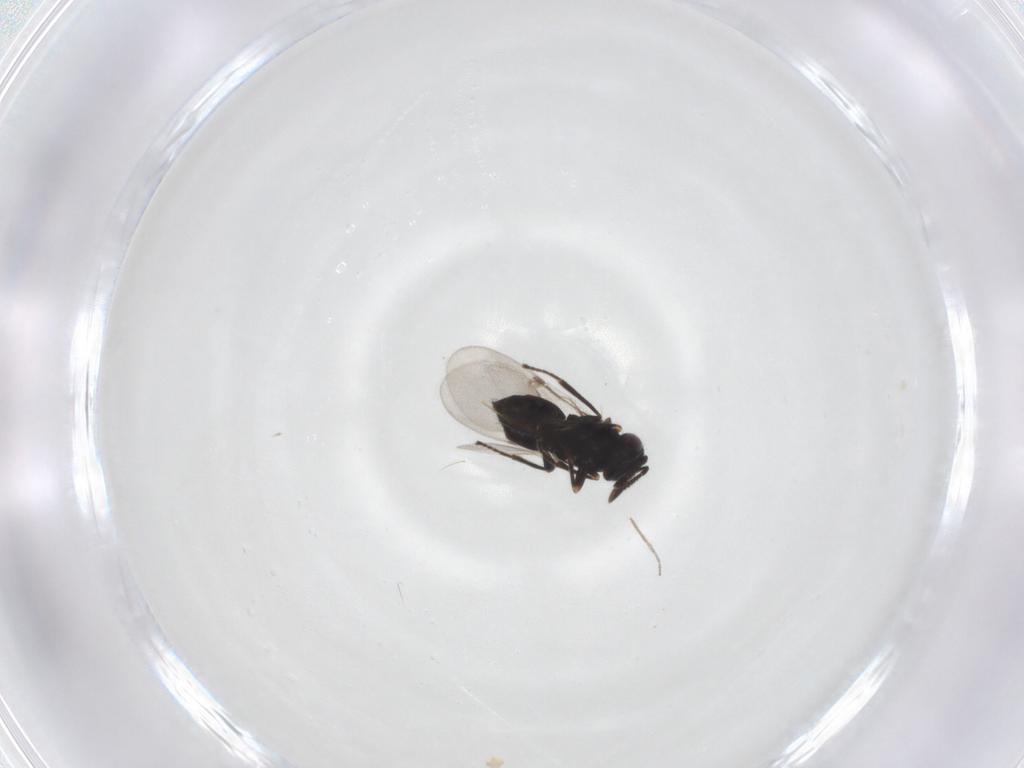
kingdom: Animalia
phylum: Arthropoda
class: Insecta
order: Hymenoptera
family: Encyrtidae
